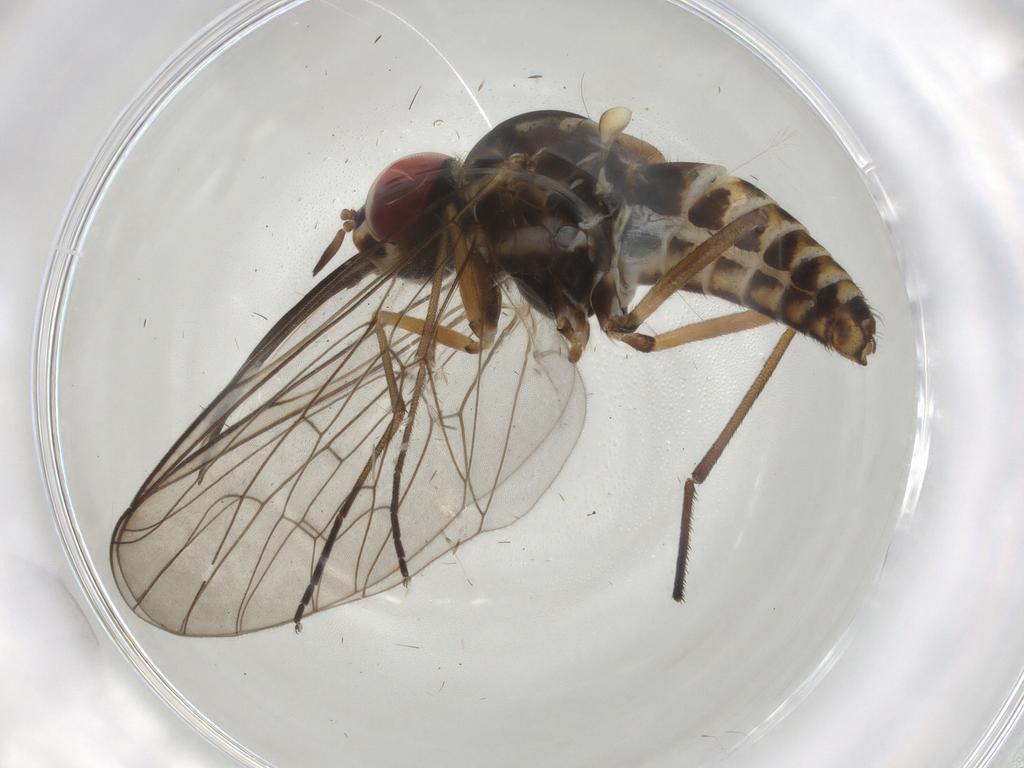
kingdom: Animalia
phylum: Arthropoda
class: Insecta
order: Diptera
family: Bombyliidae
